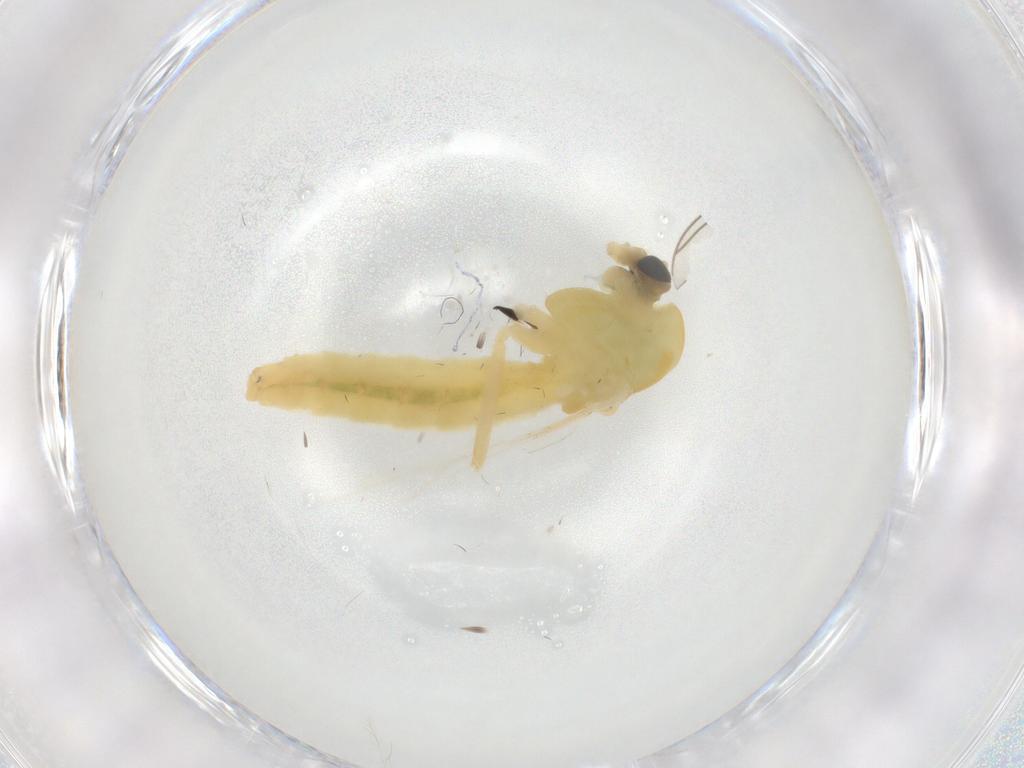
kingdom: Animalia
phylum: Arthropoda
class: Insecta
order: Diptera
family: Chironomidae
